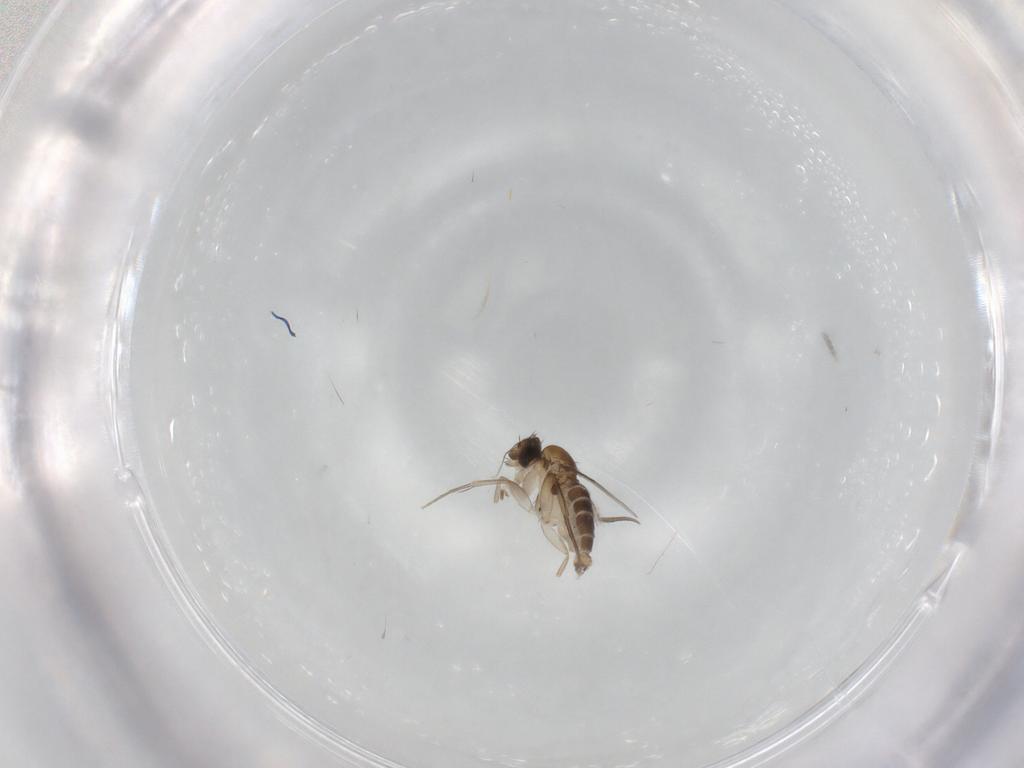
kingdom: Animalia
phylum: Arthropoda
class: Insecta
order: Diptera
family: Phoridae
